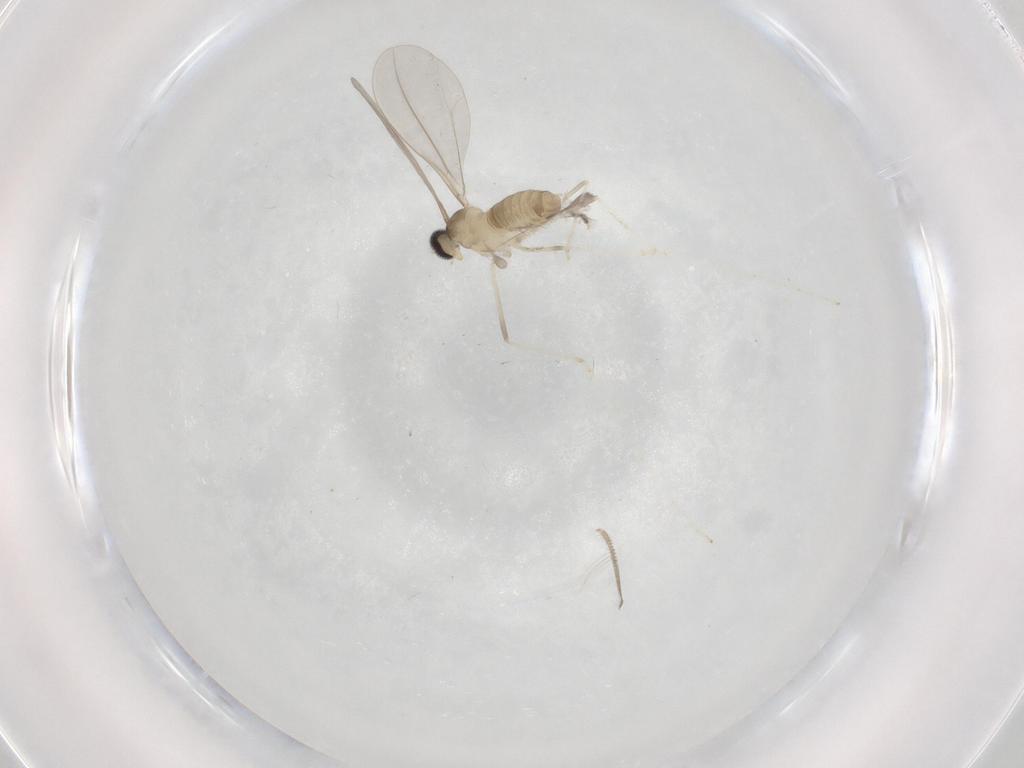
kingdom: Animalia
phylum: Arthropoda
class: Insecta
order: Diptera
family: Cecidomyiidae
